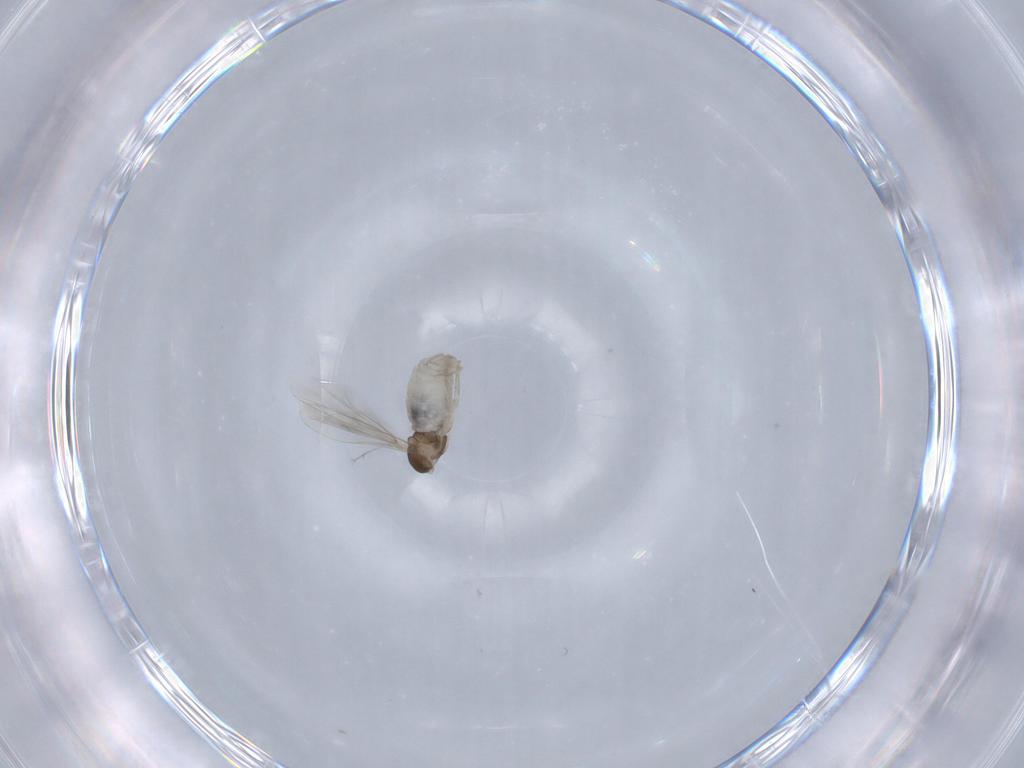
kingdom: Animalia
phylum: Arthropoda
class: Insecta
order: Diptera
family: Cecidomyiidae
